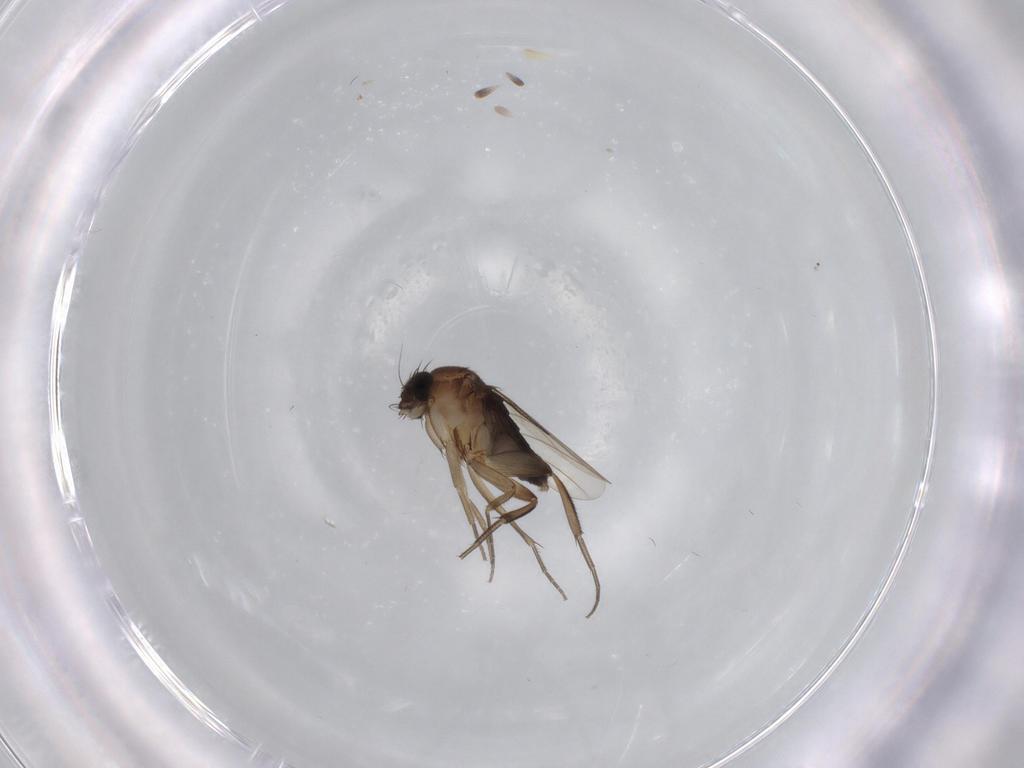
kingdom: Animalia
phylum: Arthropoda
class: Insecta
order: Diptera
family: Phoridae
